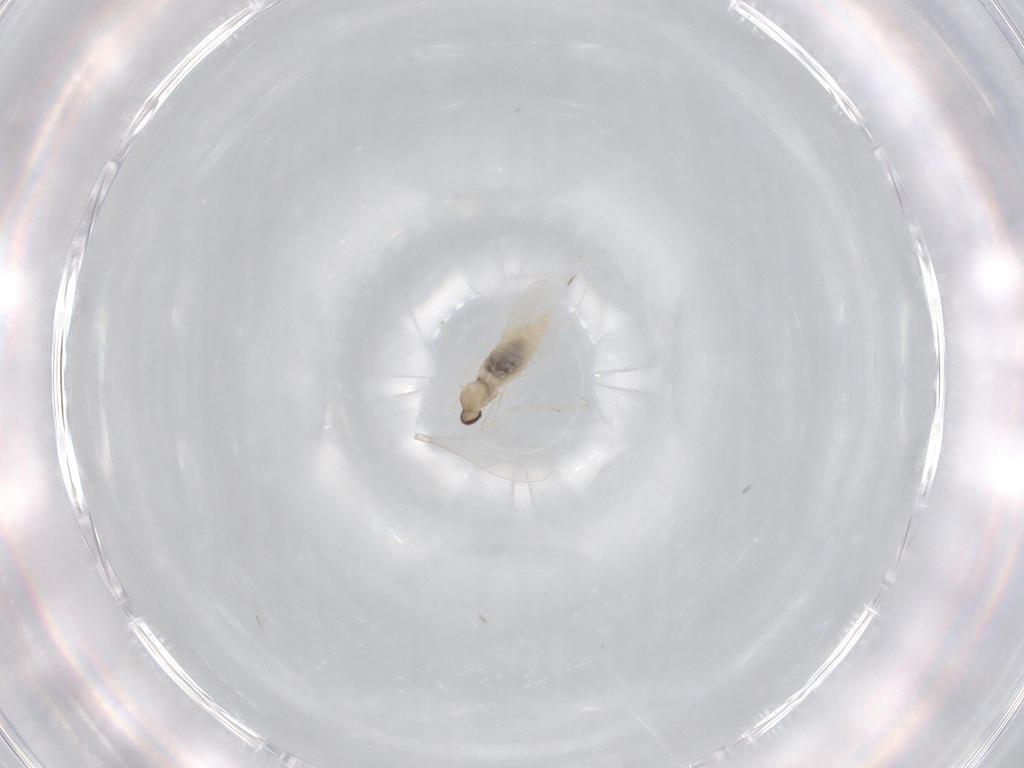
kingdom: Animalia
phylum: Arthropoda
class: Insecta
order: Diptera
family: Cecidomyiidae
